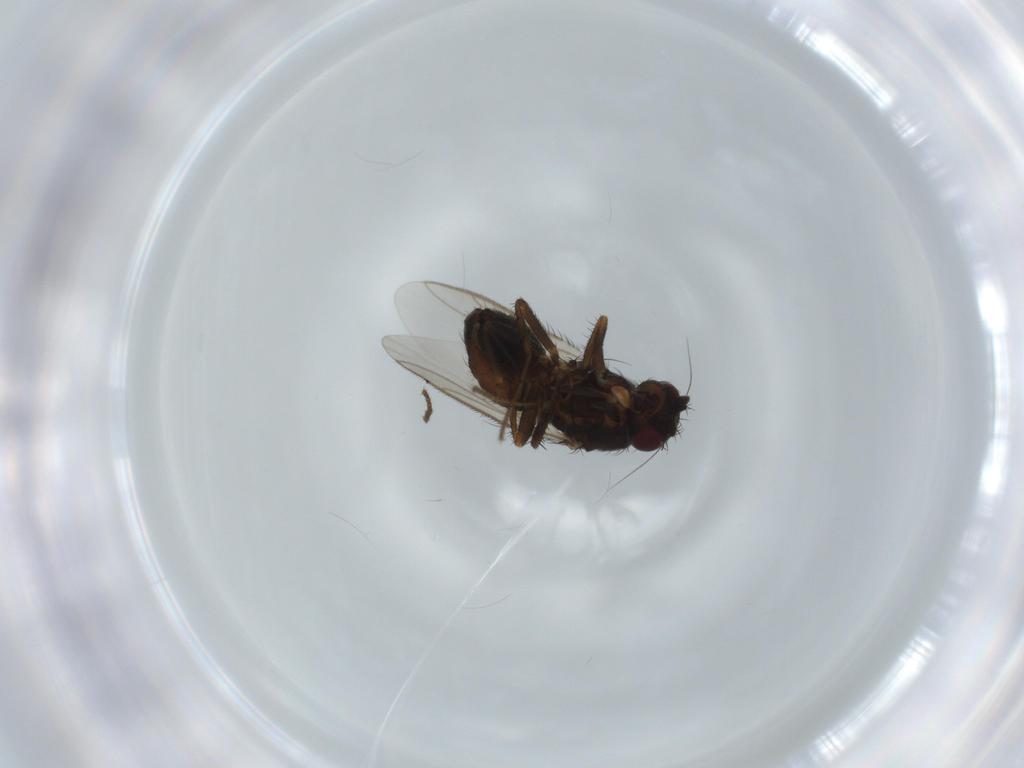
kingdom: Animalia
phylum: Arthropoda
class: Insecta
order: Diptera
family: Sphaeroceridae
